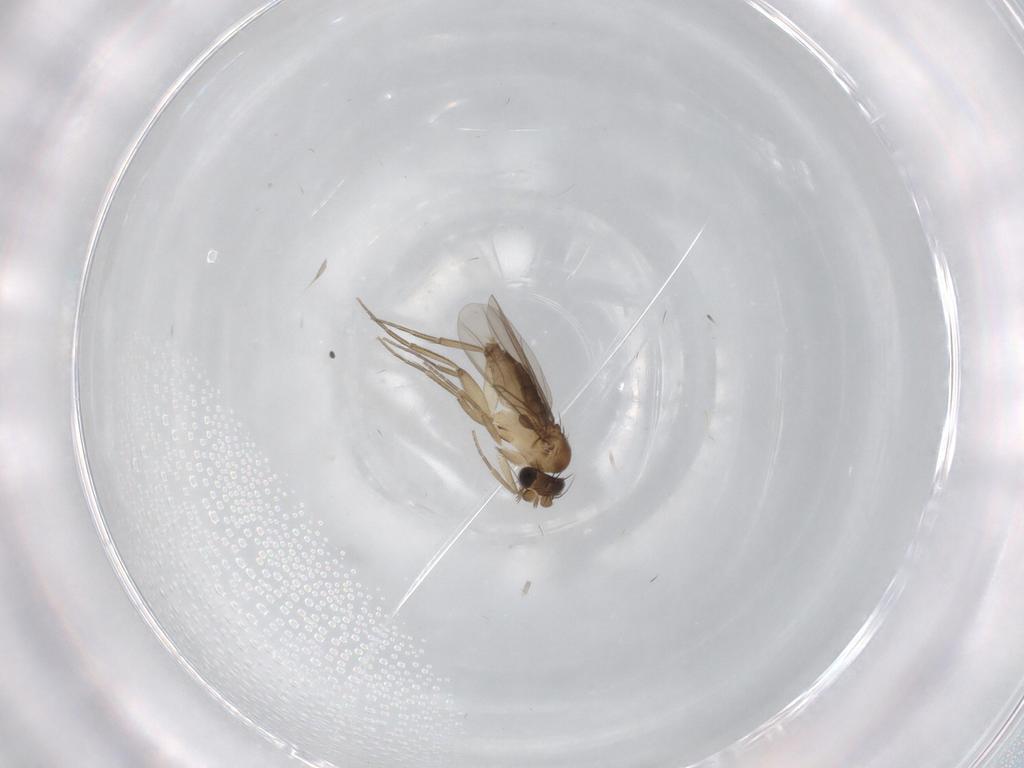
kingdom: Animalia
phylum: Arthropoda
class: Insecta
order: Diptera
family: Phoridae
